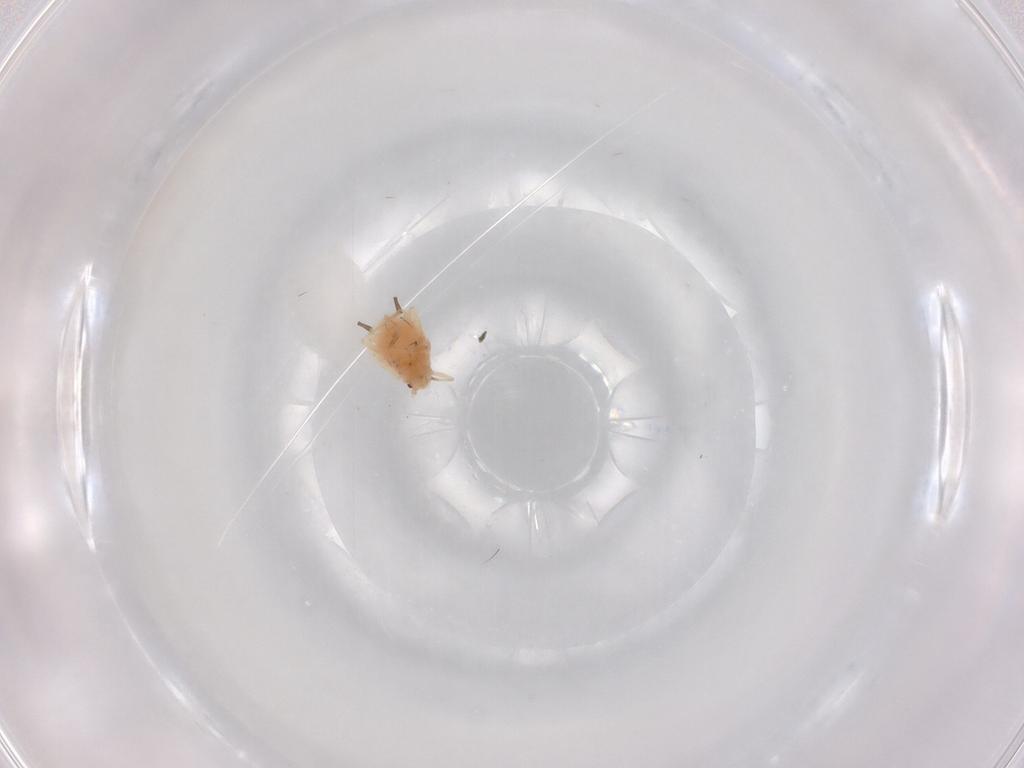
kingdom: Animalia
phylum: Arthropoda
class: Insecta
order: Hemiptera
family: Aphididae
